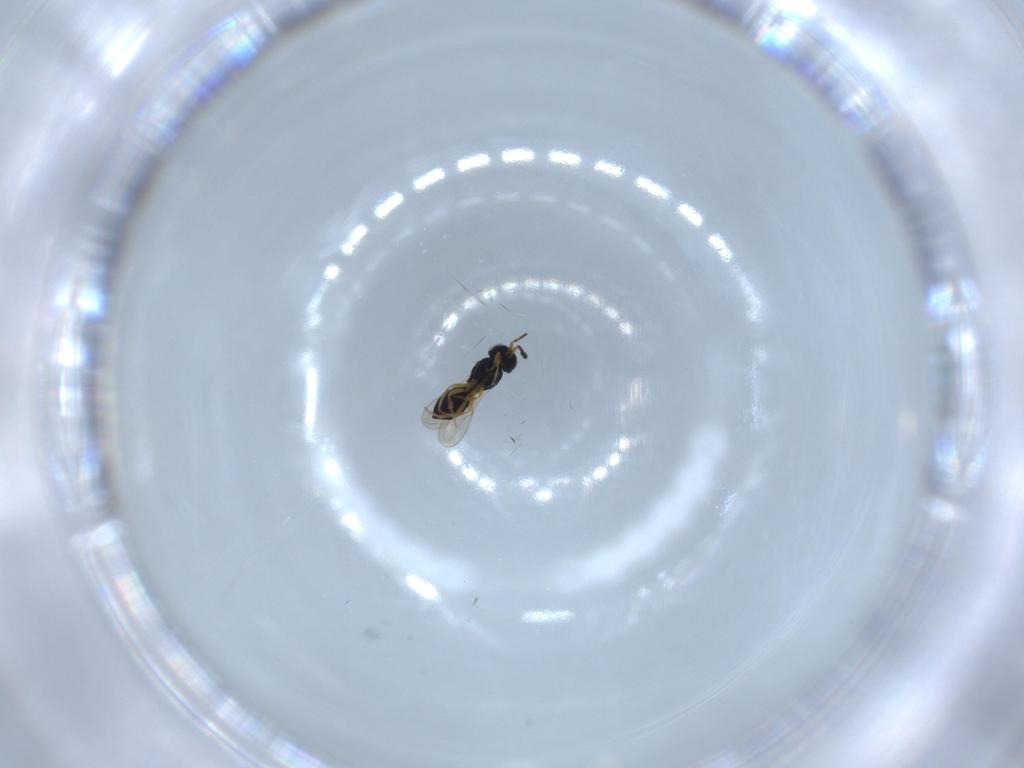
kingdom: Animalia
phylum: Arthropoda
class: Insecta
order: Hymenoptera
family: Scelionidae
